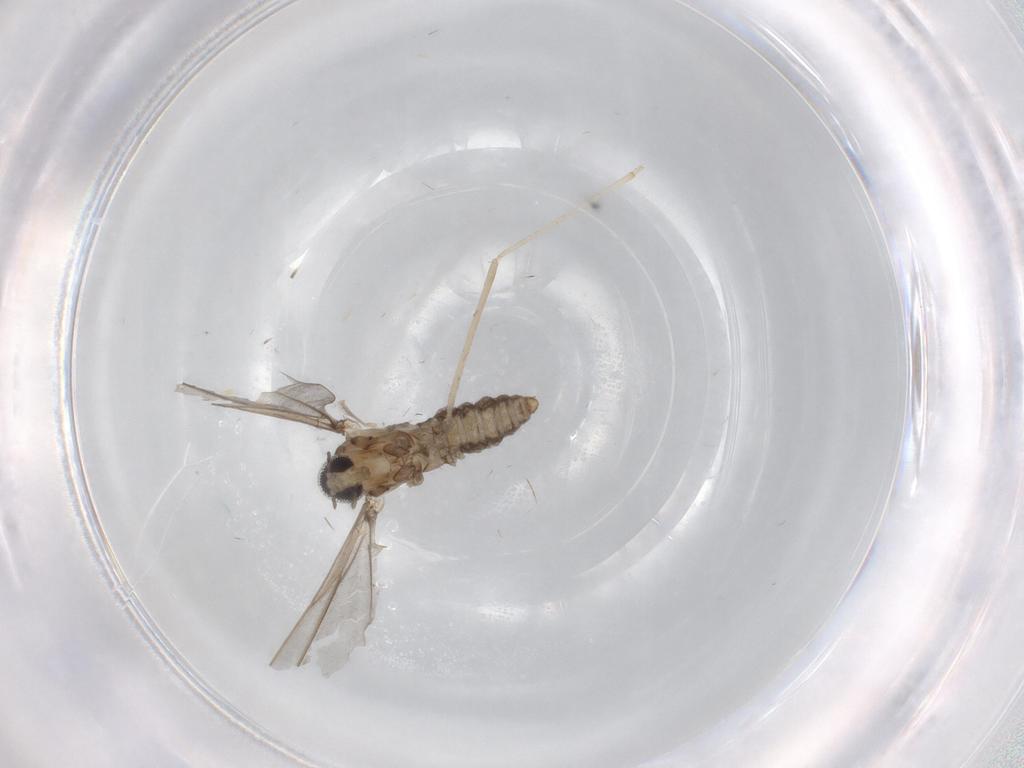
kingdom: Animalia
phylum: Arthropoda
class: Insecta
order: Diptera
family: Cecidomyiidae
